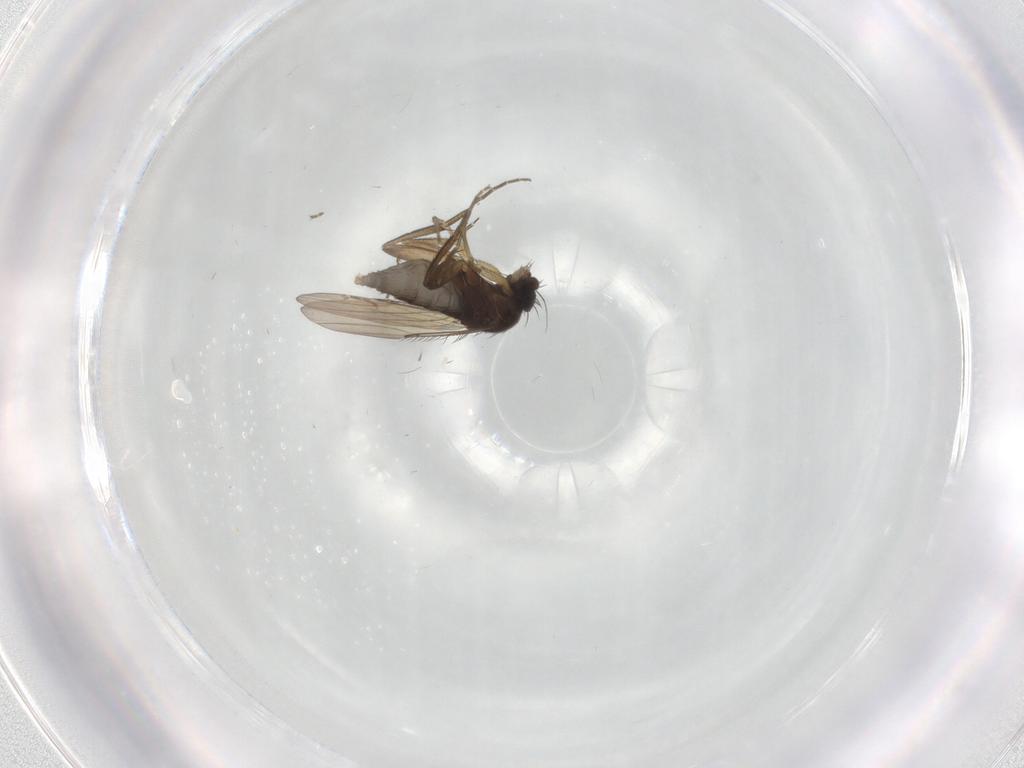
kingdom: Animalia
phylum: Arthropoda
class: Insecta
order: Diptera
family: Phoridae
